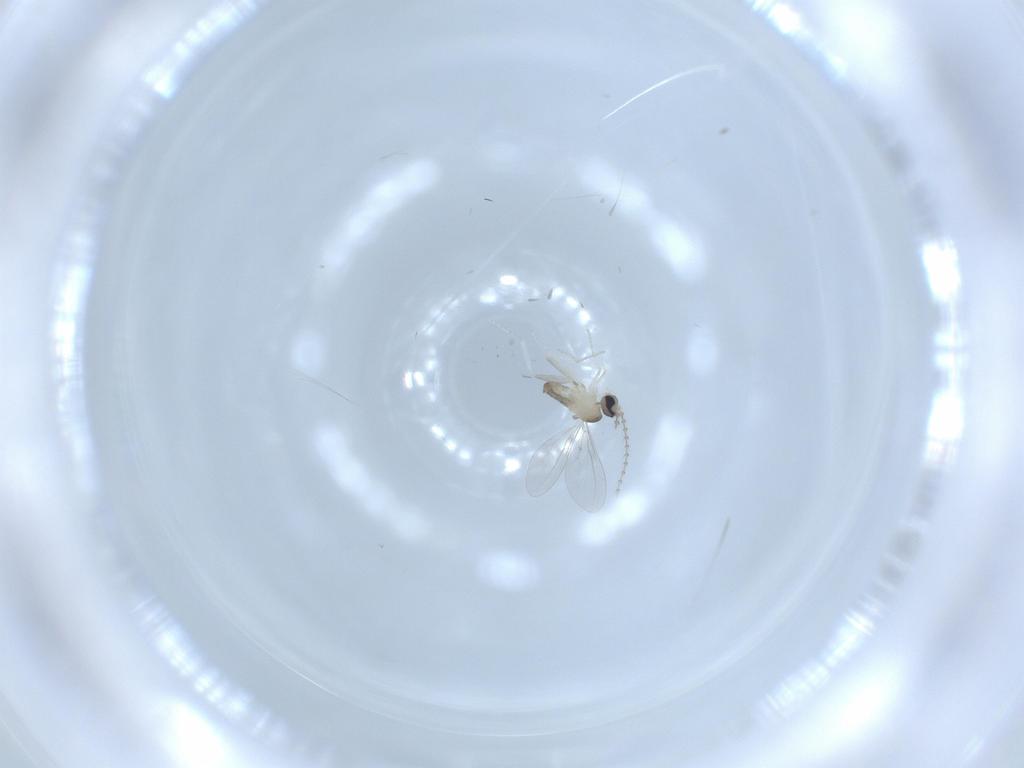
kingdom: Animalia
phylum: Arthropoda
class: Insecta
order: Diptera
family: Cecidomyiidae
